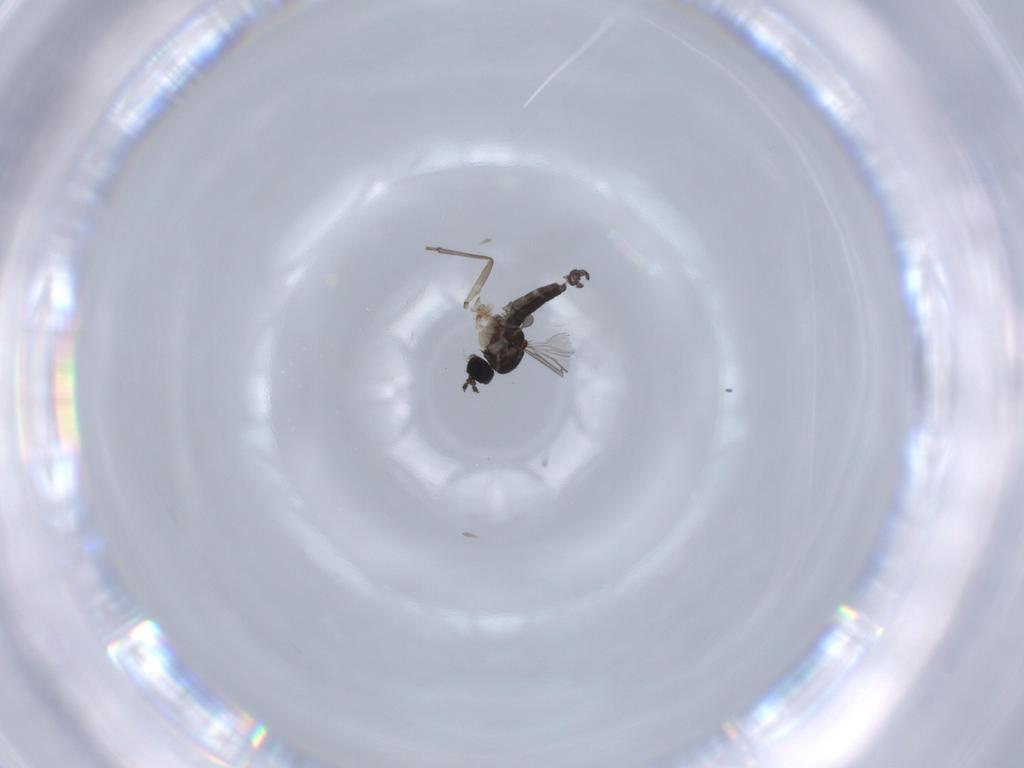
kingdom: Animalia
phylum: Arthropoda
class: Insecta
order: Diptera
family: Sciaridae
